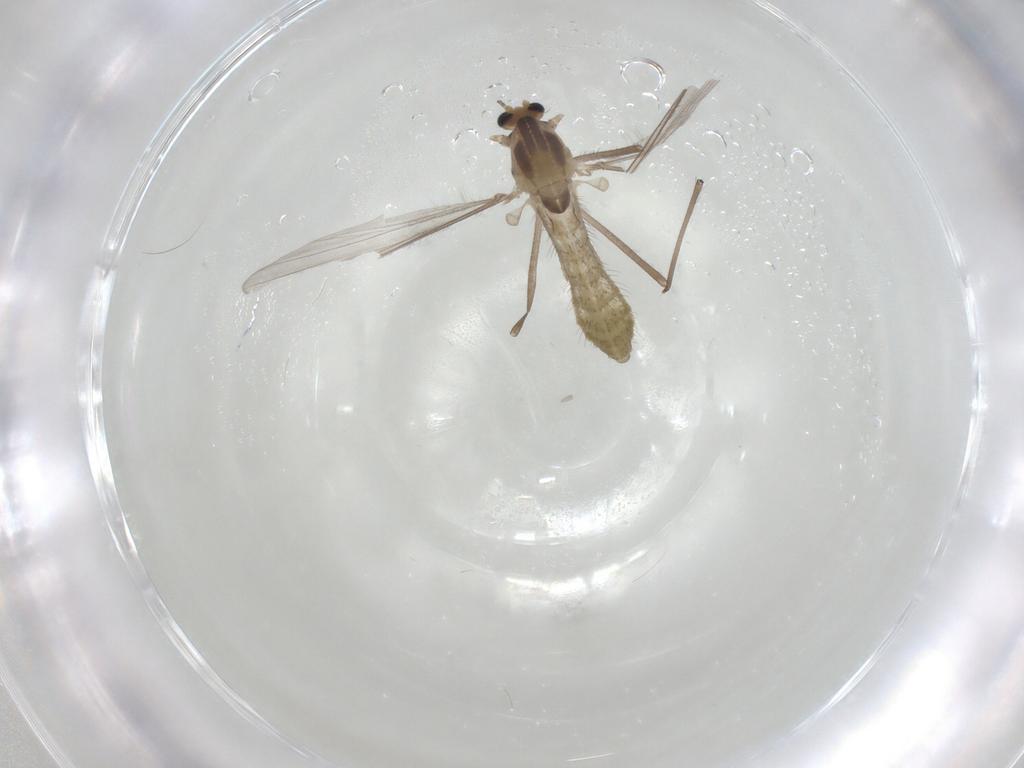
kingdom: Animalia
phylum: Arthropoda
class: Insecta
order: Diptera
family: Chironomidae
